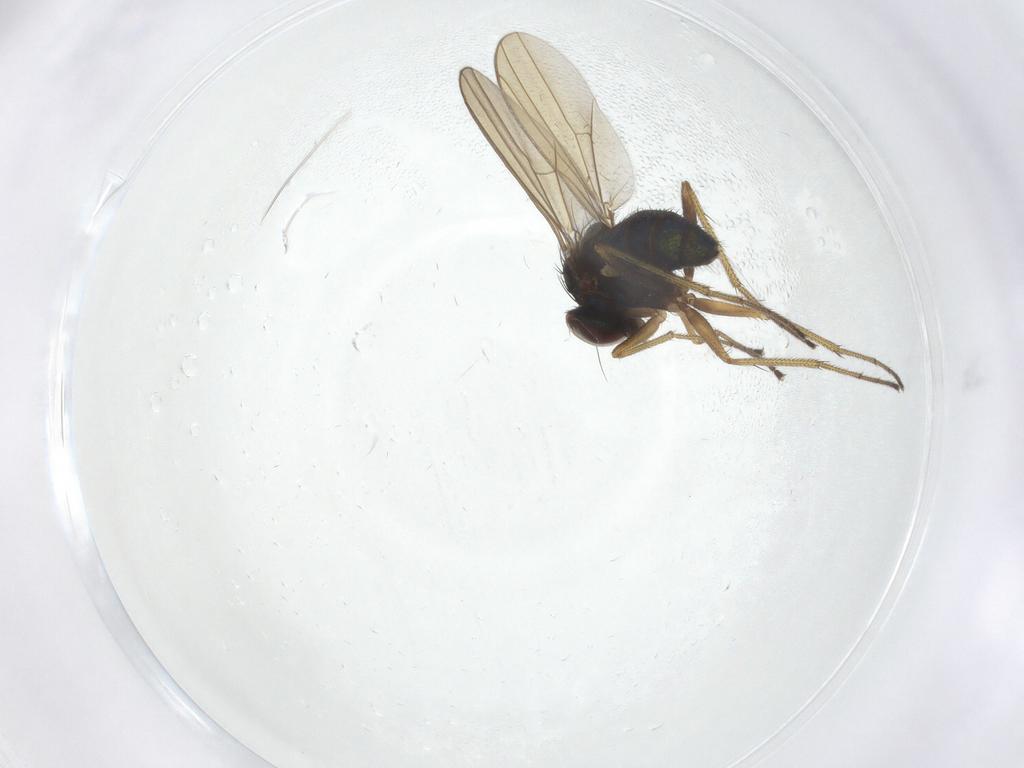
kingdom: Animalia
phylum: Arthropoda
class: Insecta
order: Diptera
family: Dolichopodidae
